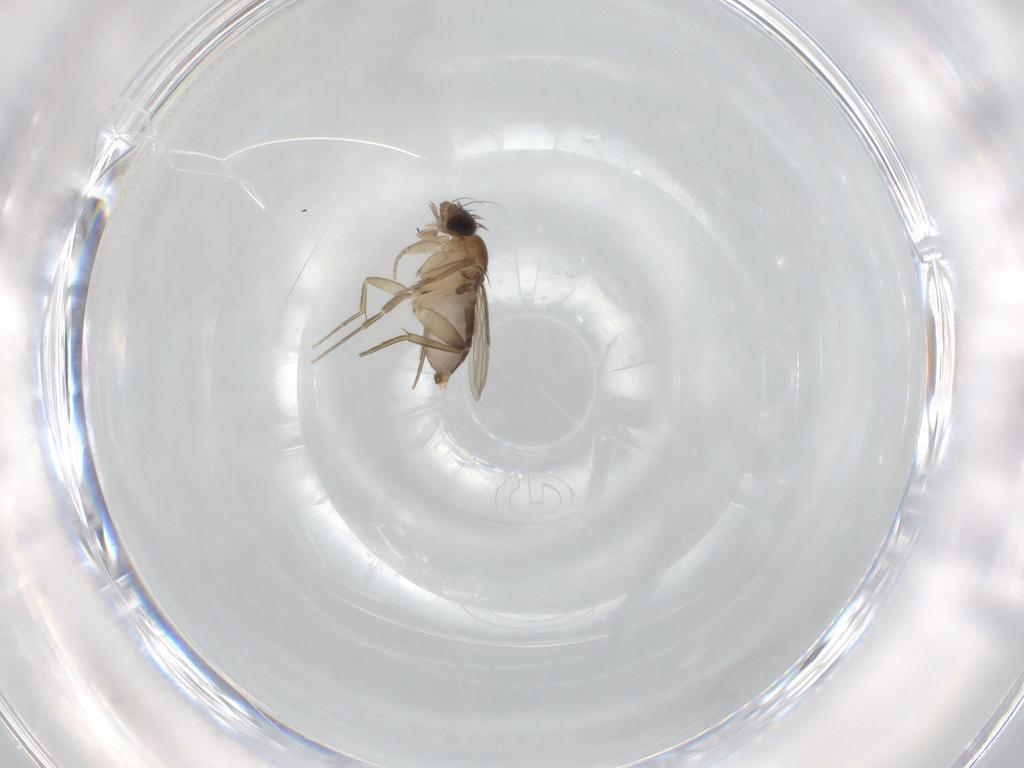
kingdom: Animalia
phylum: Arthropoda
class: Insecta
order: Diptera
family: Phoridae
